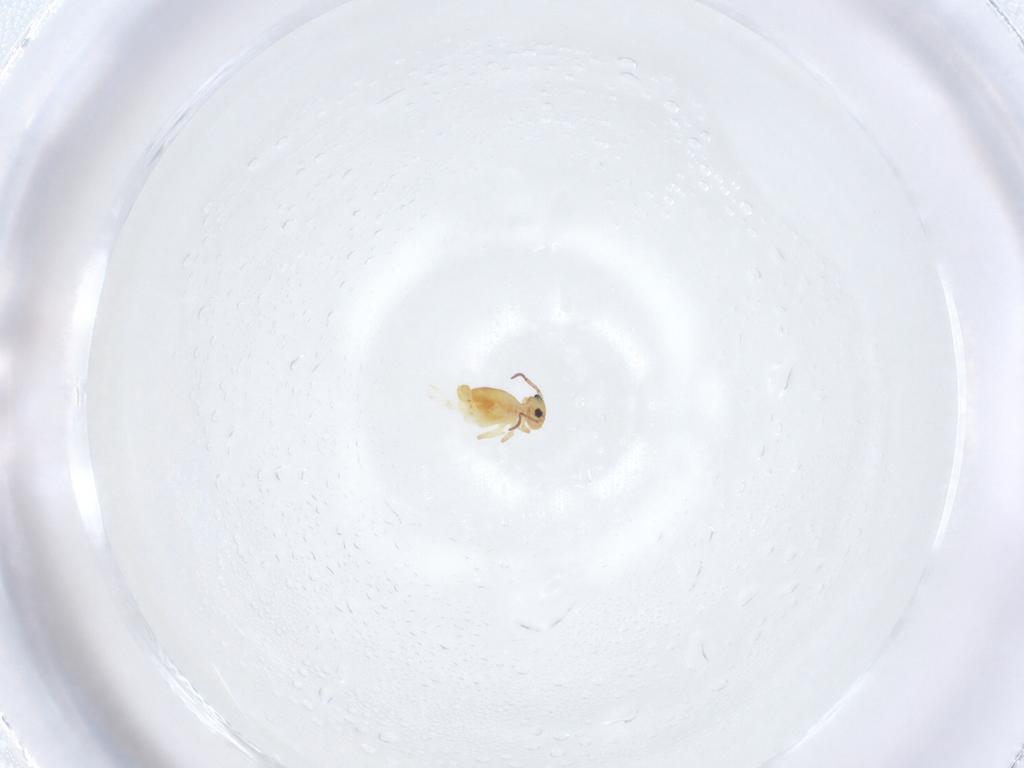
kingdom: Animalia
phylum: Arthropoda
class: Collembola
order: Symphypleona
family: Bourletiellidae
